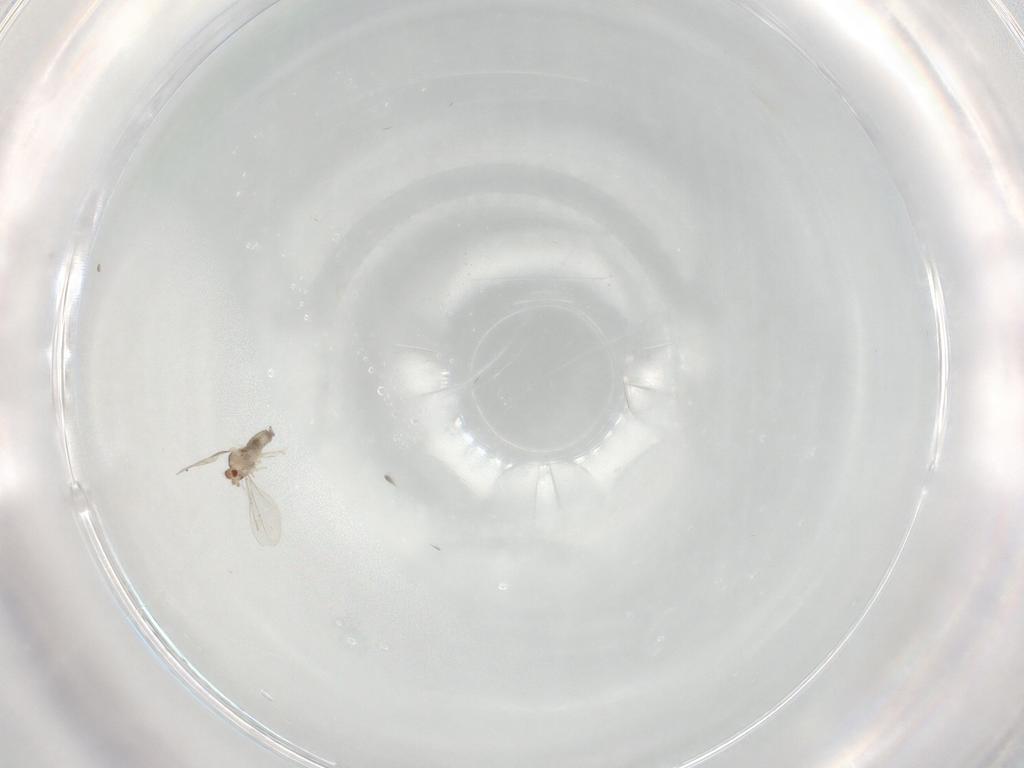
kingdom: Animalia
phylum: Arthropoda
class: Insecta
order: Diptera
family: Cecidomyiidae
